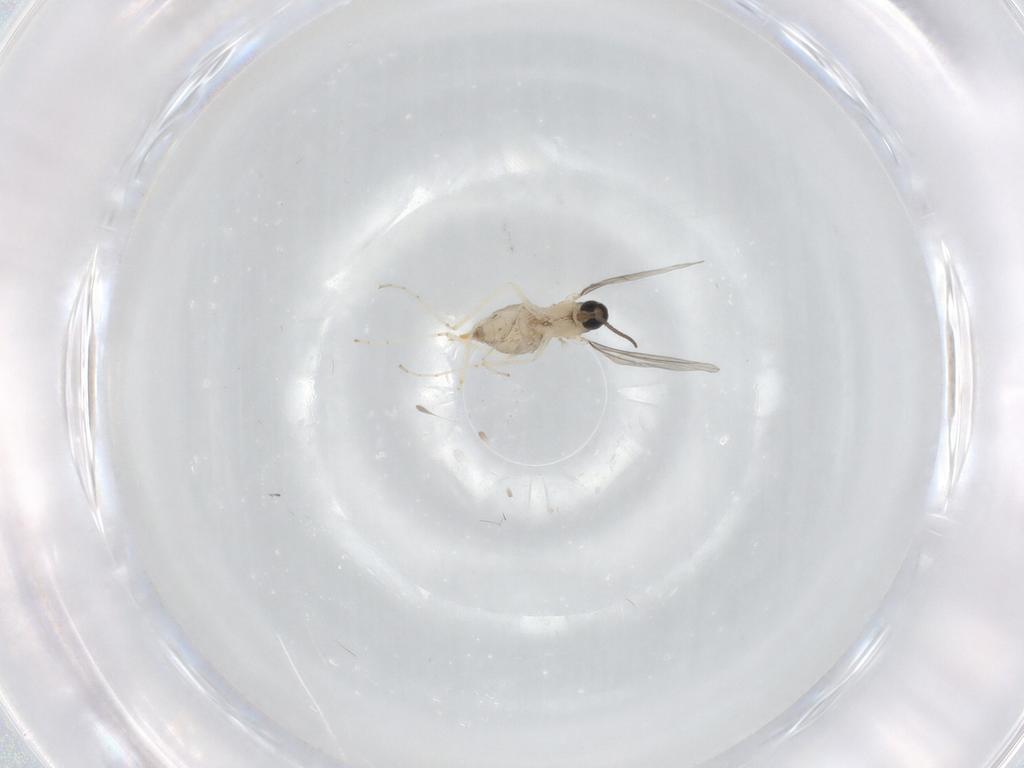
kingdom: Animalia
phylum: Arthropoda
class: Insecta
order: Diptera
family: Cecidomyiidae
